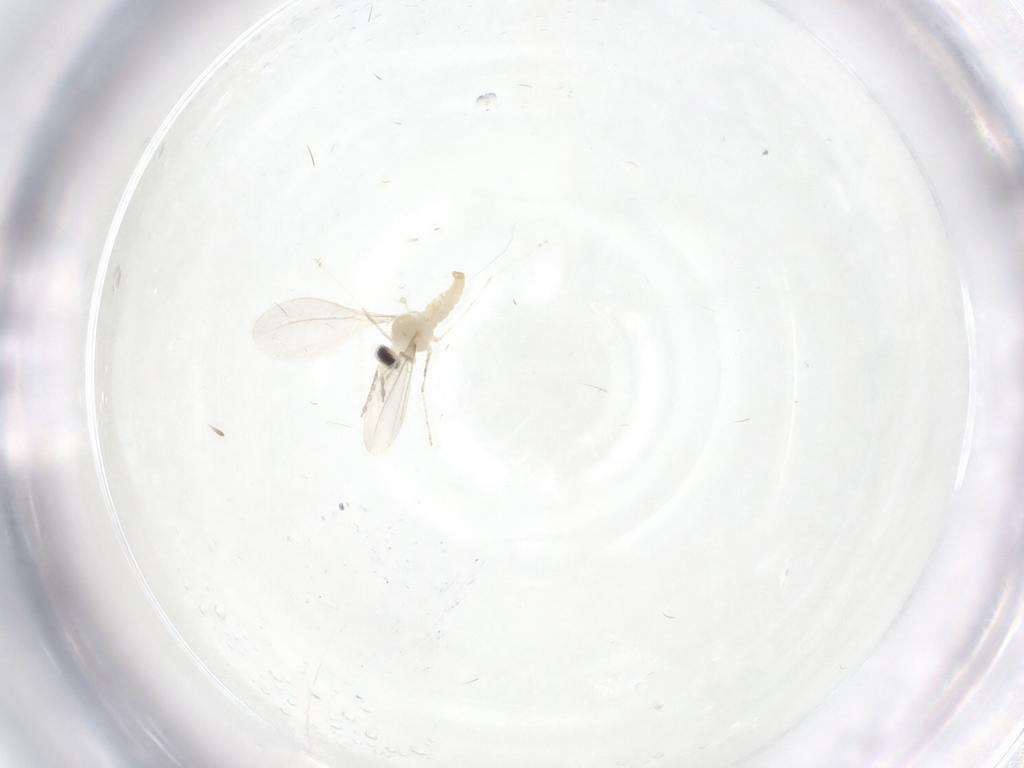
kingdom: Animalia
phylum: Arthropoda
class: Insecta
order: Diptera
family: Cecidomyiidae
